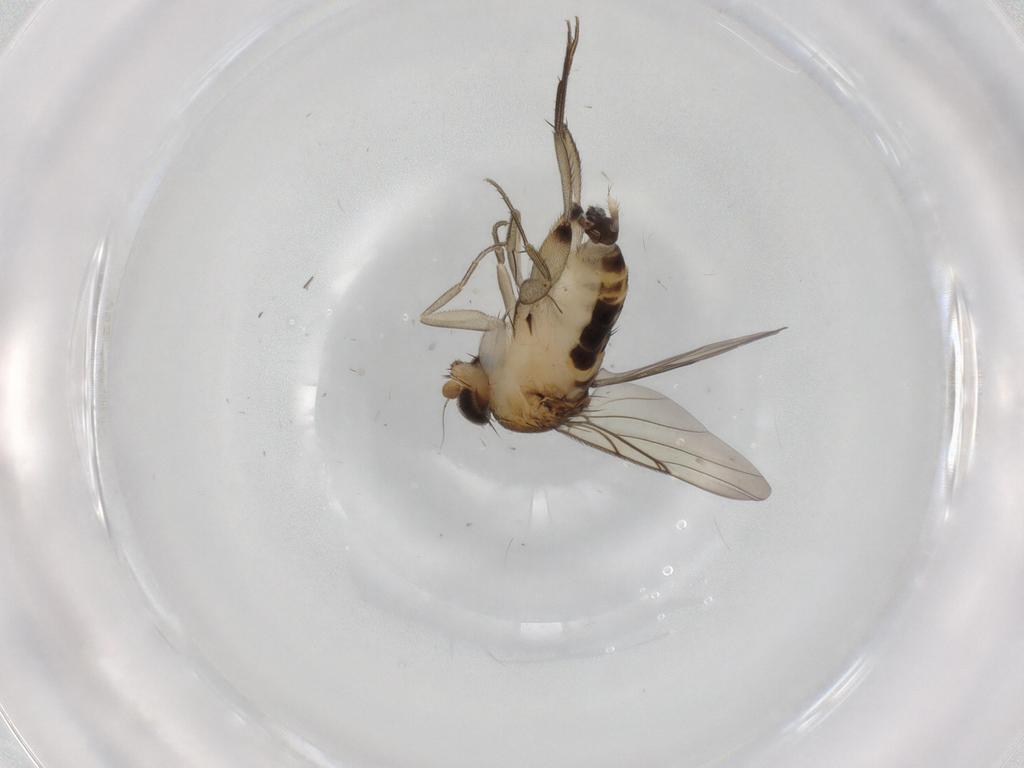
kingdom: Animalia
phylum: Arthropoda
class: Insecta
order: Diptera
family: Phoridae
